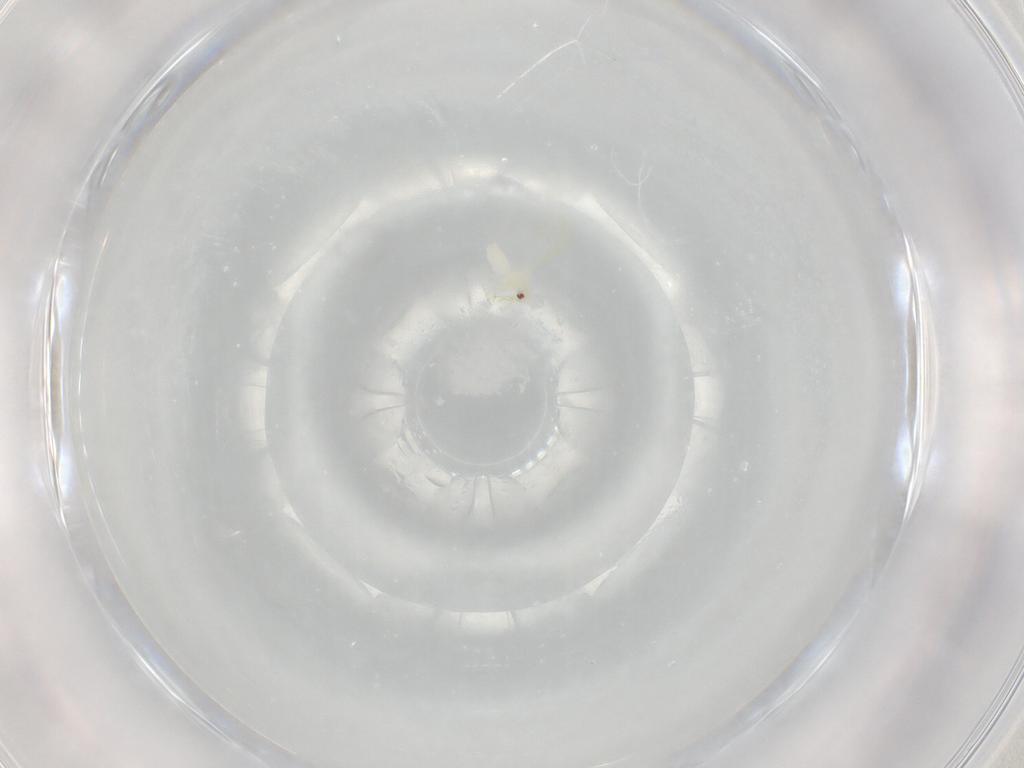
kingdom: Animalia
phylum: Arthropoda
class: Insecta
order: Hemiptera
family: Aleyrodidae
